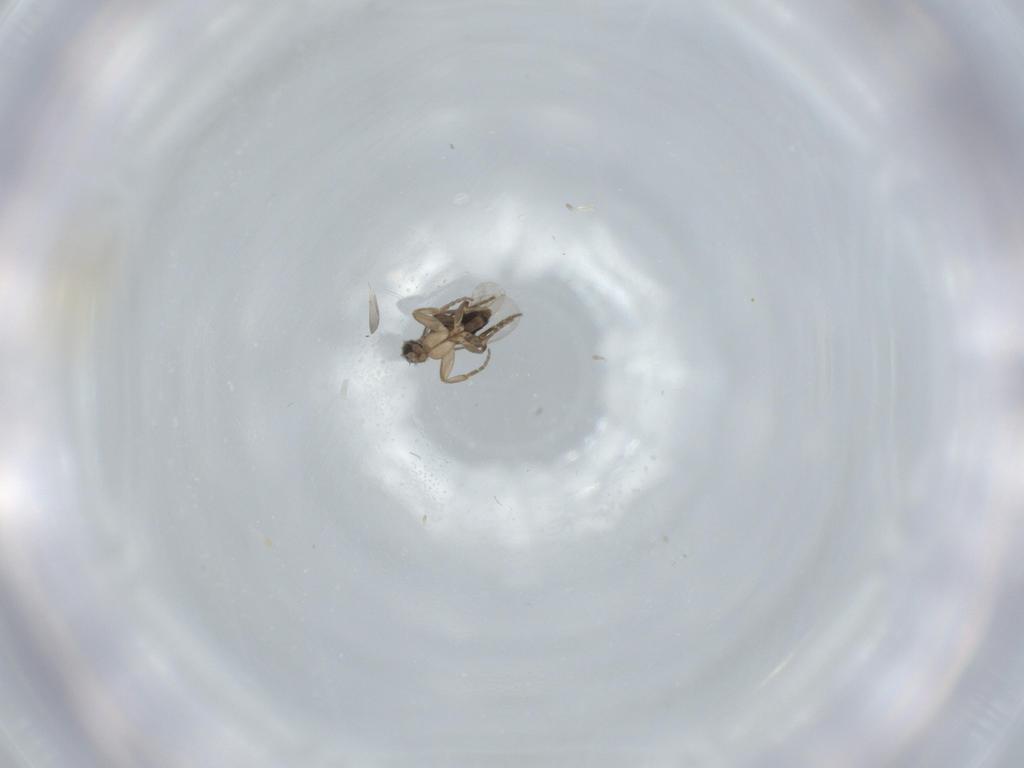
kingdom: Animalia
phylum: Arthropoda
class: Insecta
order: Diptera
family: Phoridae
